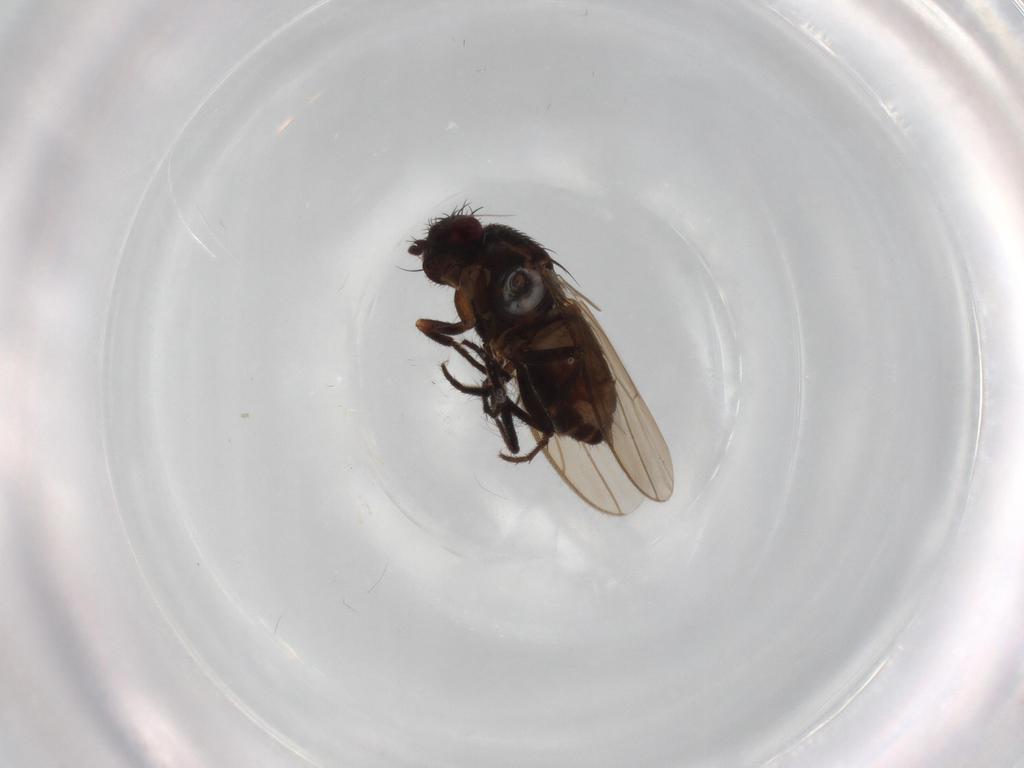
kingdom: Animalia
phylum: Arthropoda
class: Insecta
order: Diptera
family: Sphaeroceridae
